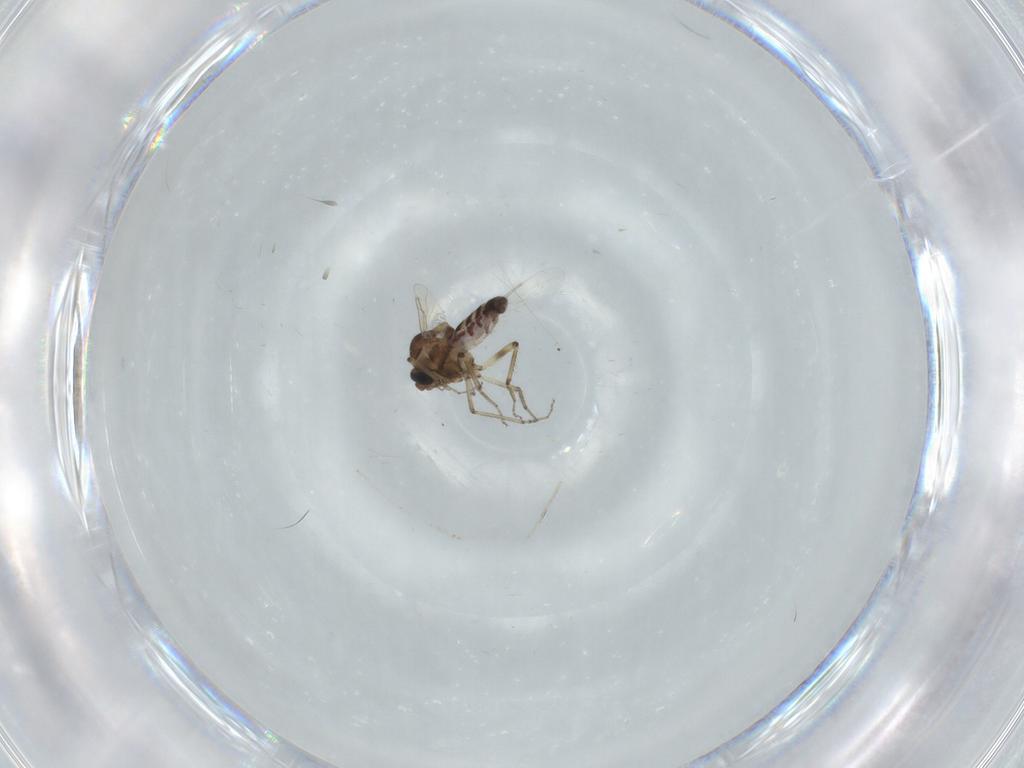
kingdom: Animalia
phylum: Arthropoda
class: Insecta
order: Diptera
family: Ceratopogonidae
